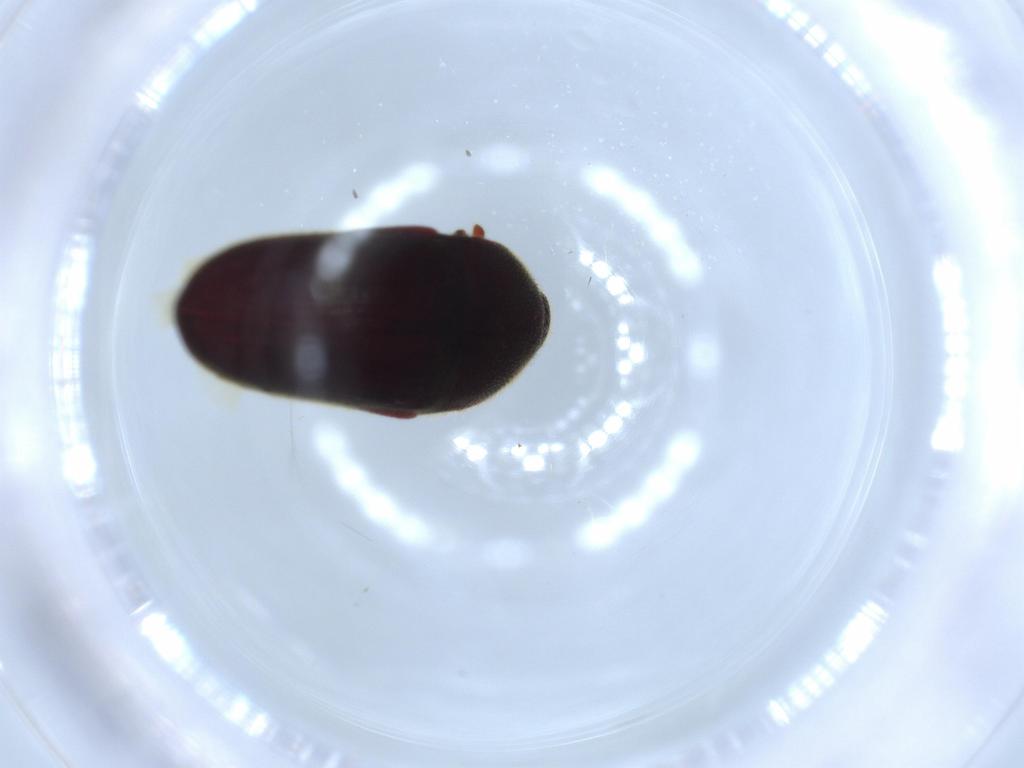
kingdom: Animalia
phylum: Arthropoda
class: Insecta
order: Coleoptera
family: Throscidae
